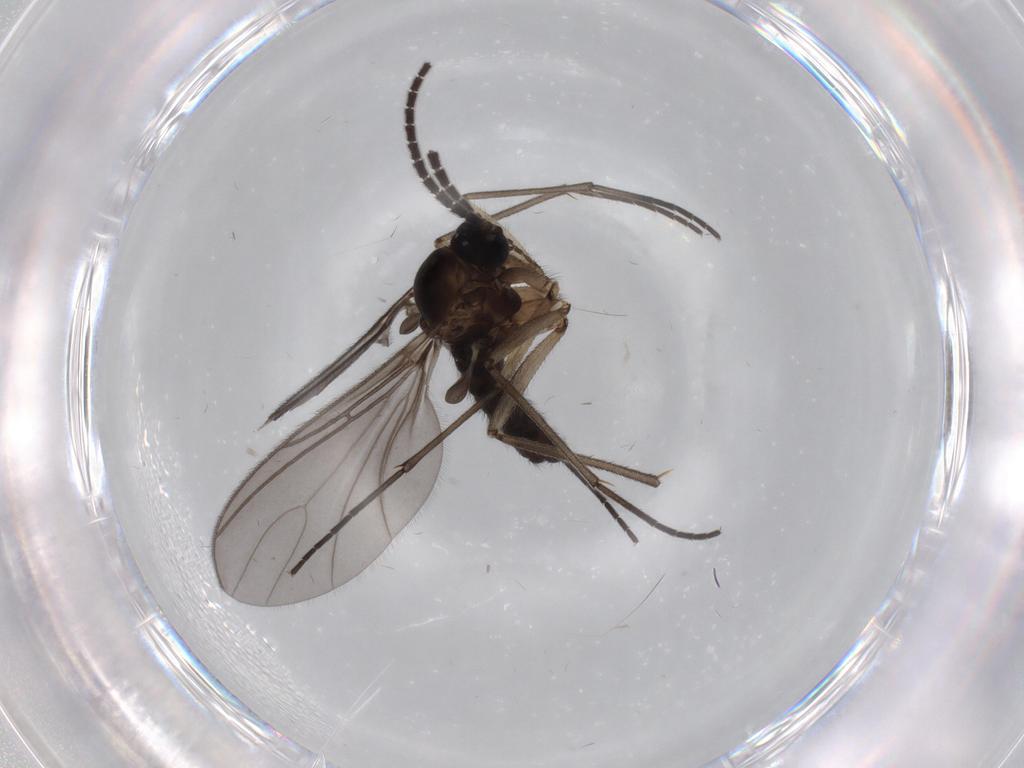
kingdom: Animalia
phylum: Arthropoda
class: Insecta
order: Diptera
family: Sciaridae
